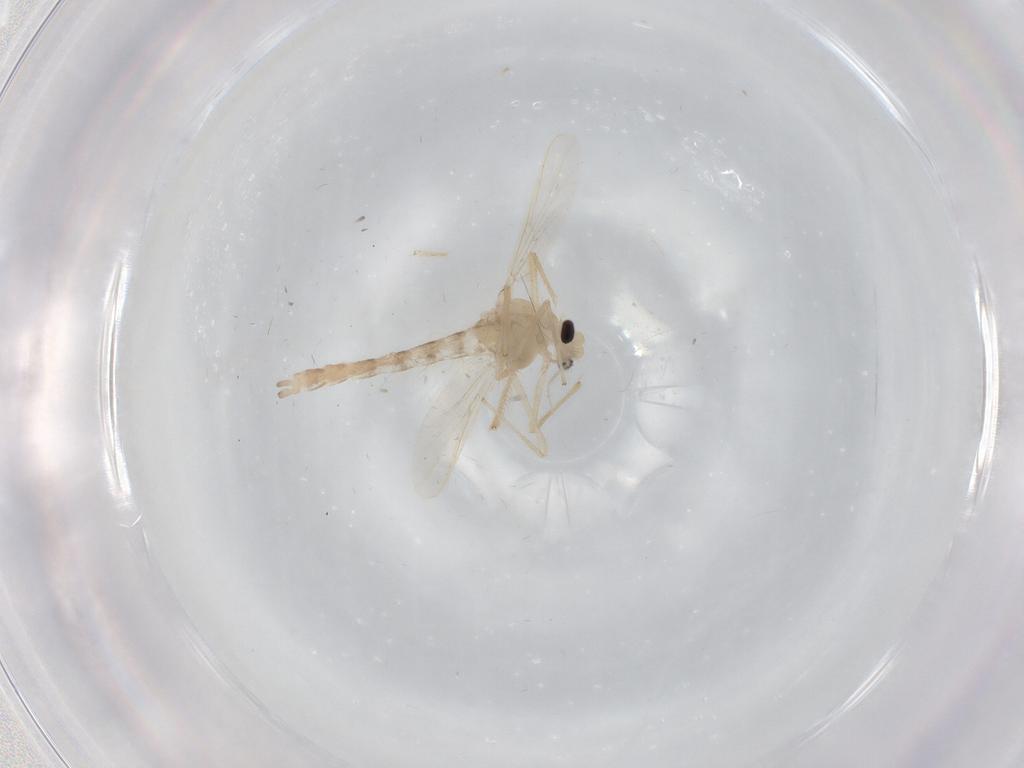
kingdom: Animalia
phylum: Arthropoda
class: Insecta
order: Diptera
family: Chironomidae
